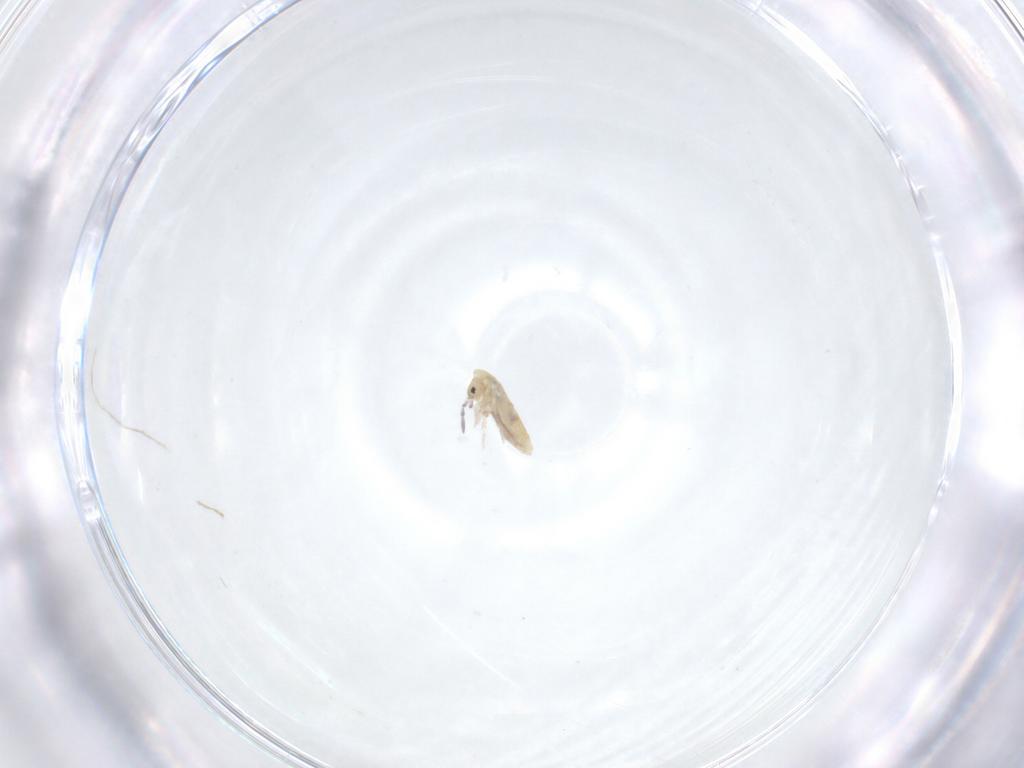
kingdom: Animalia
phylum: Arthropoda
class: Collembola
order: Entomobryomorpha
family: Entomobryidae
